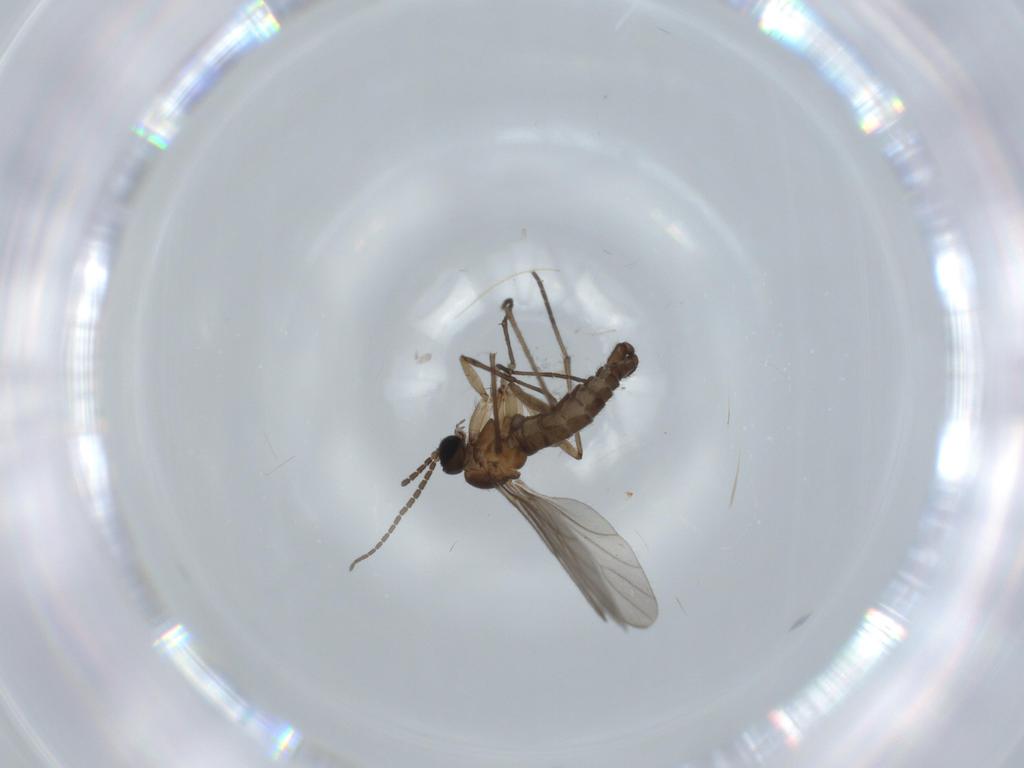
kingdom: Animalia
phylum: Arthropoda
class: Insecta
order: Diptera
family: Sciaridae
